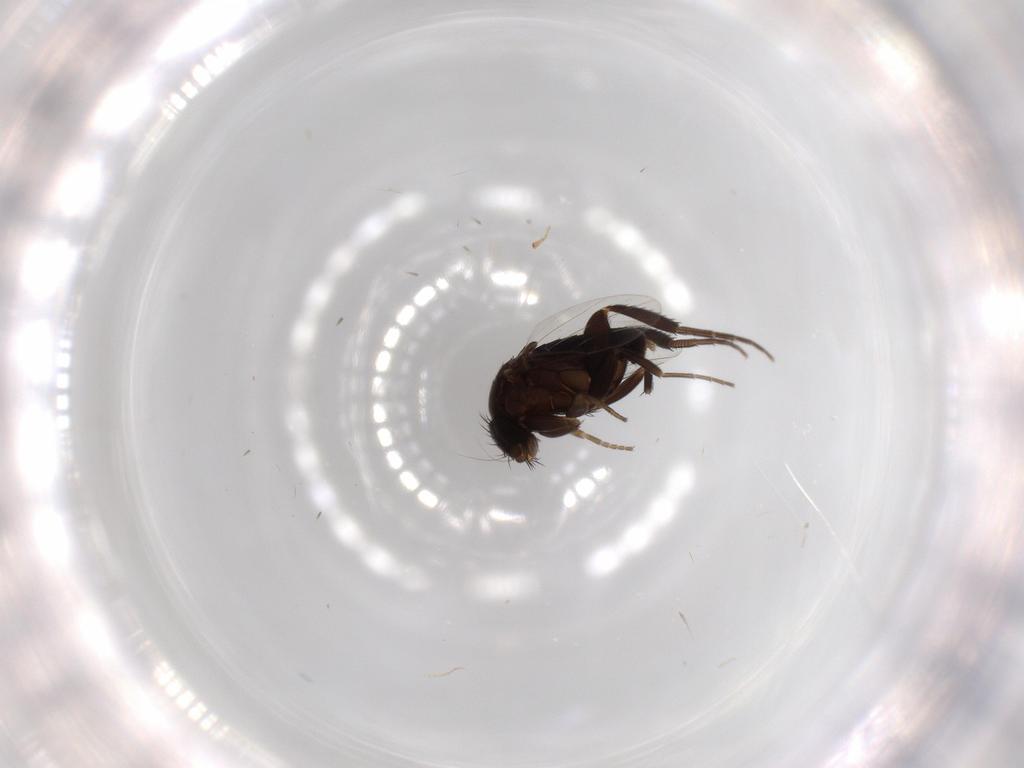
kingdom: Animalia
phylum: Arthropoda
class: Insecta
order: Diptera
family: Phoridae
